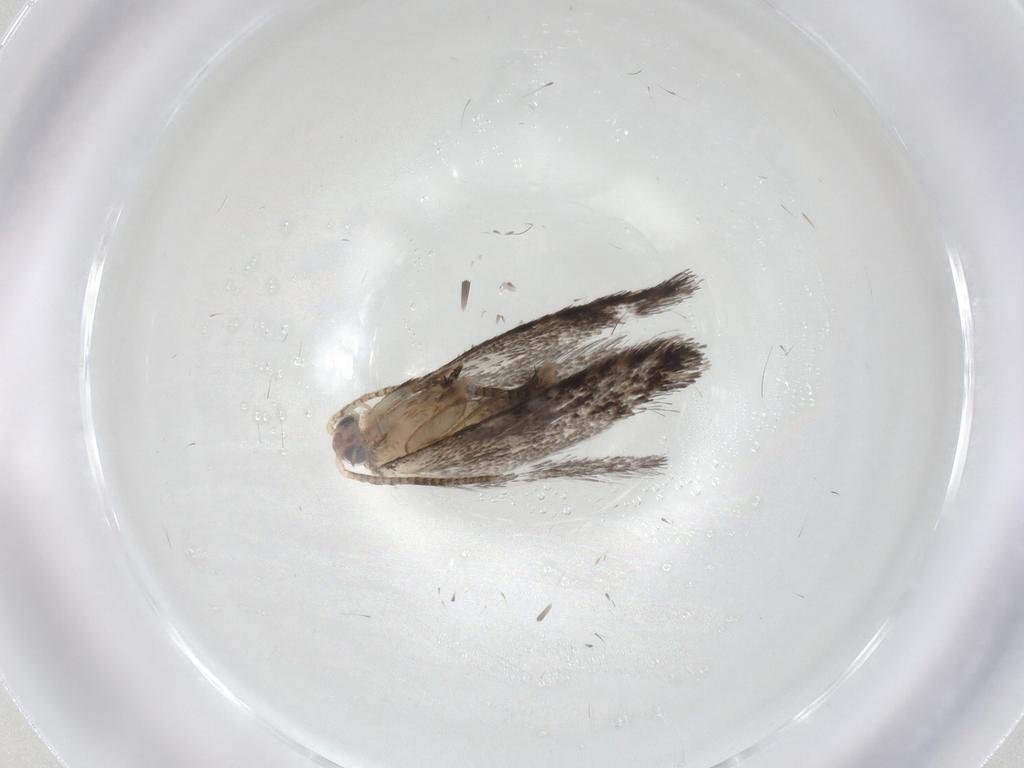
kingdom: Animalia
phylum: Arthropoda
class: Insecta
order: Lepidoptera
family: Tineidae
